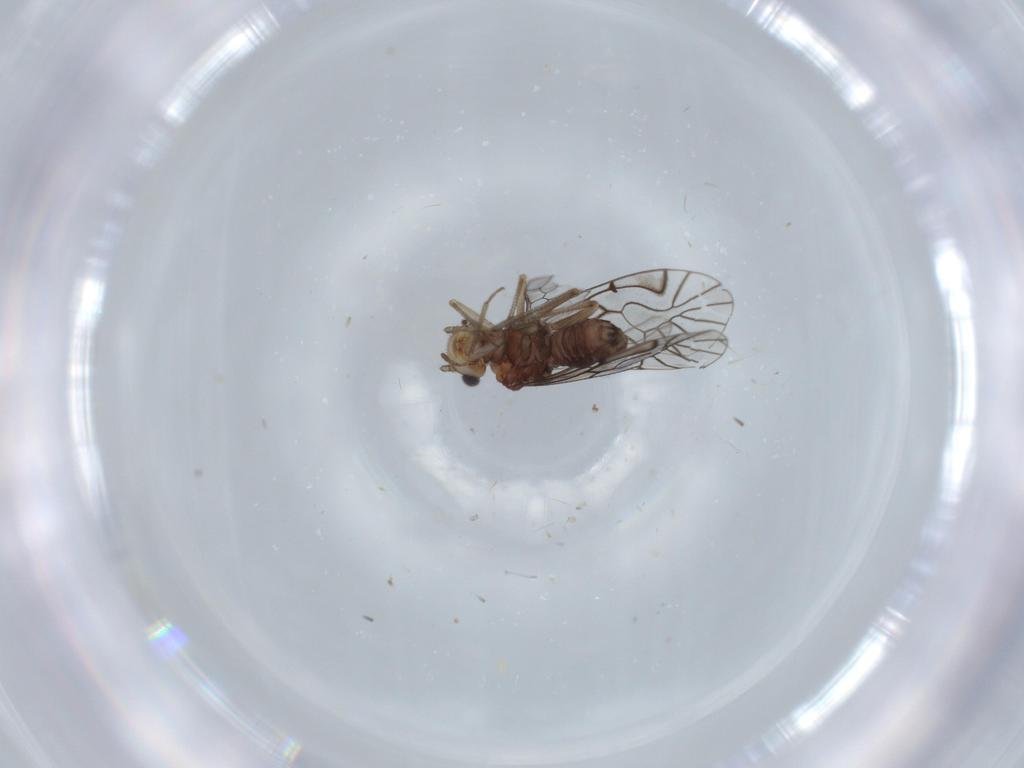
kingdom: Animalia
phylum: Arthropoda
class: Insecta
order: Psocodea
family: Amphipsocidae
